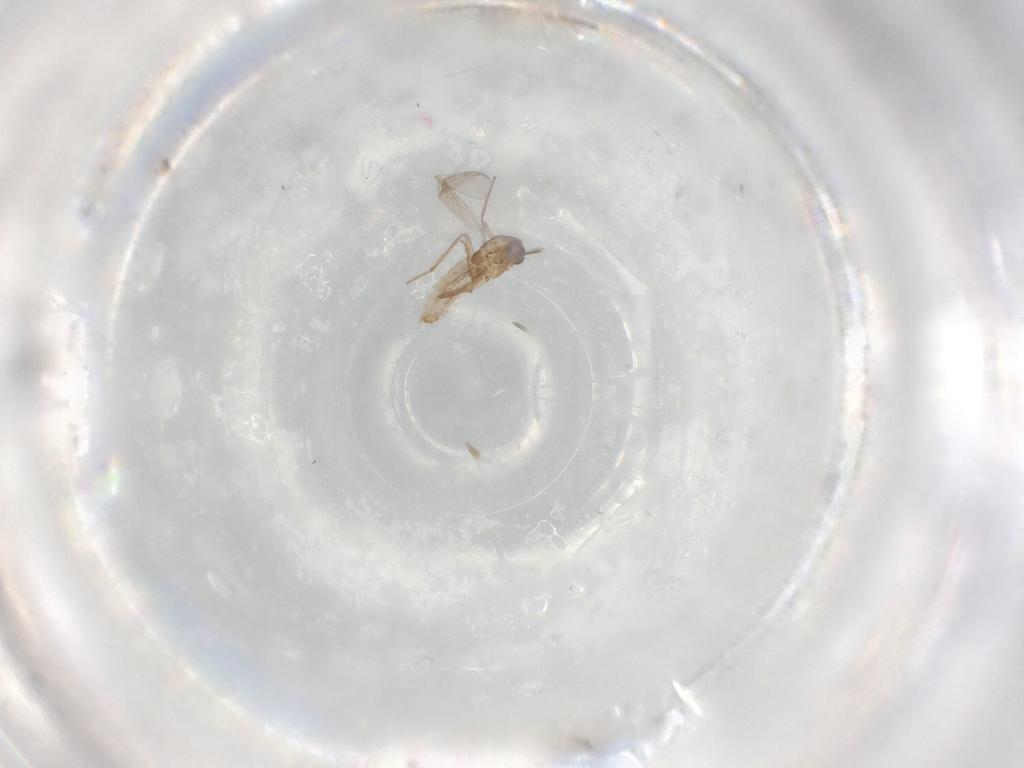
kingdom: Animalia
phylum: Arthropoda
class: Insecta
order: Diptera
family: Chironomidae
